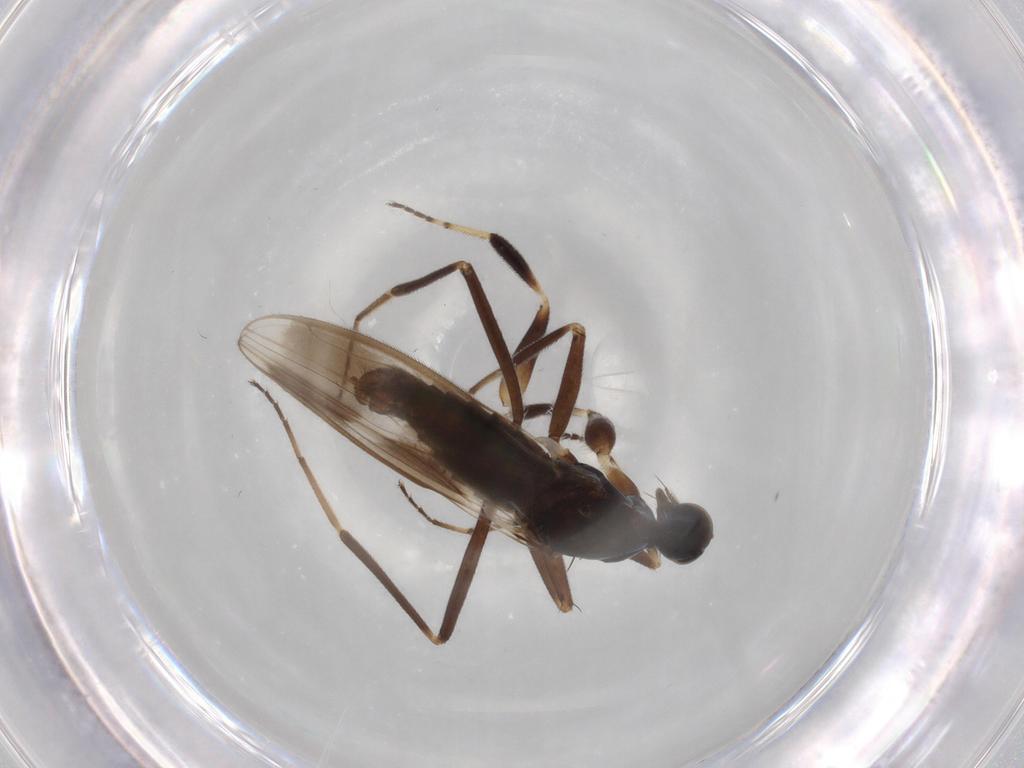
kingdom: Animalia
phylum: Arthropoda
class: Insecta
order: Diptera
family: Hybotidae
